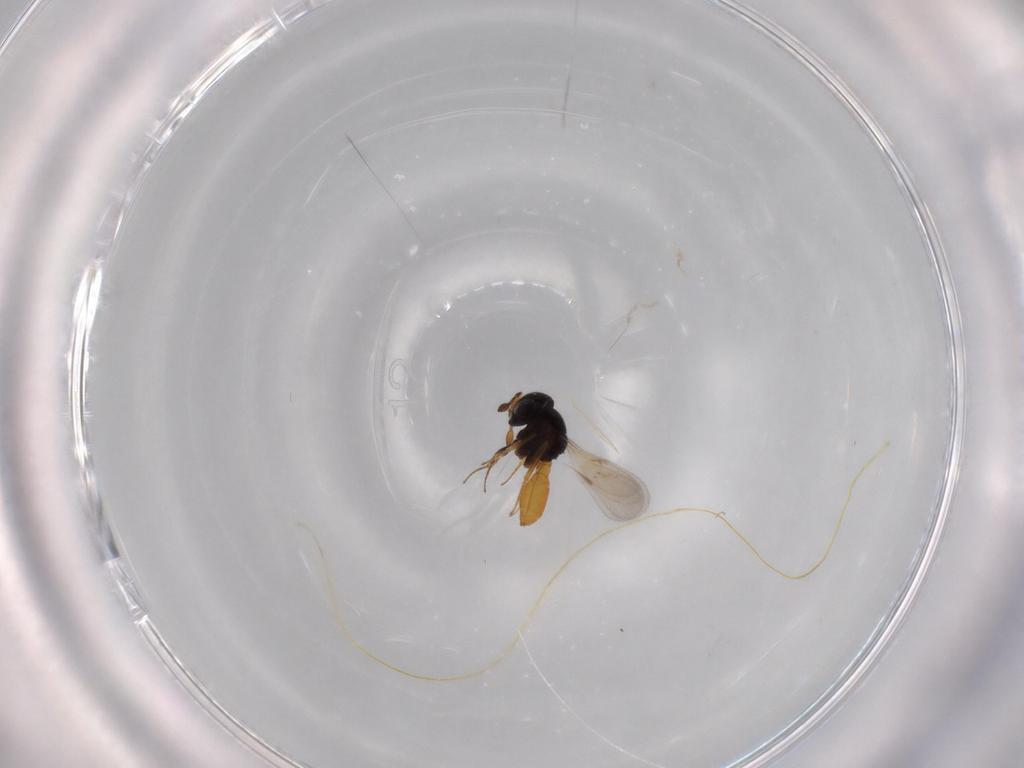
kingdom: Animalia
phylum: Arthropoda
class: Insecta
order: Hymenoptera
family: Scelionidae
